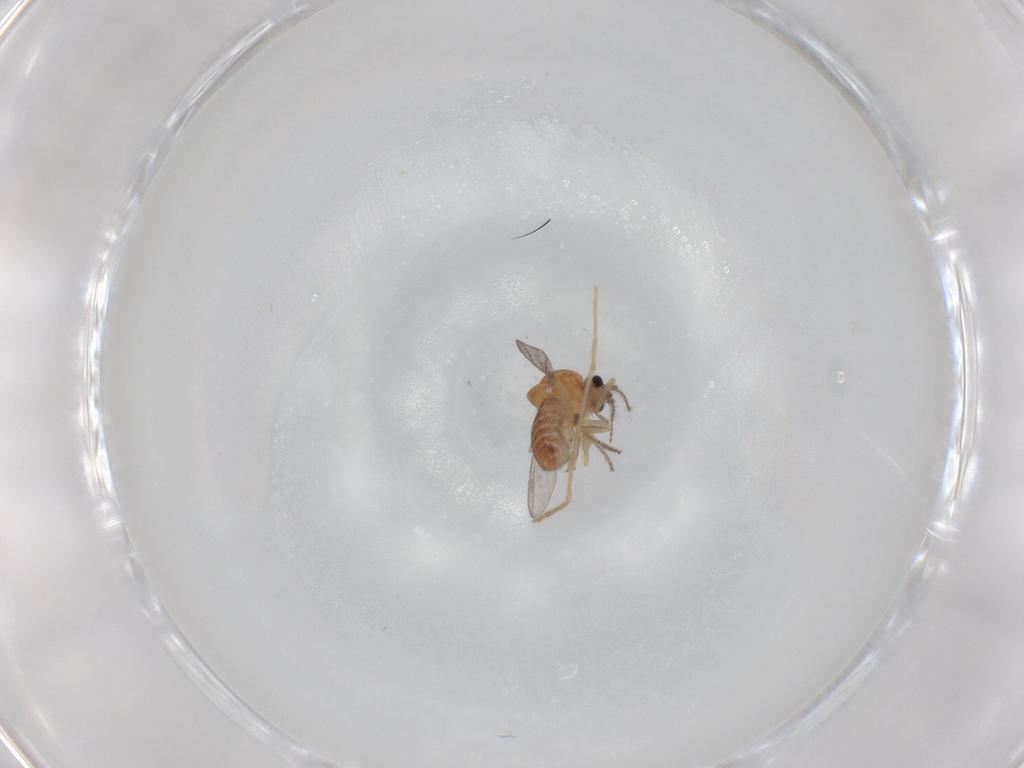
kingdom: Animalia
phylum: Arthropoda
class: Insecta
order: Diptera
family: Ceratopogonidae
